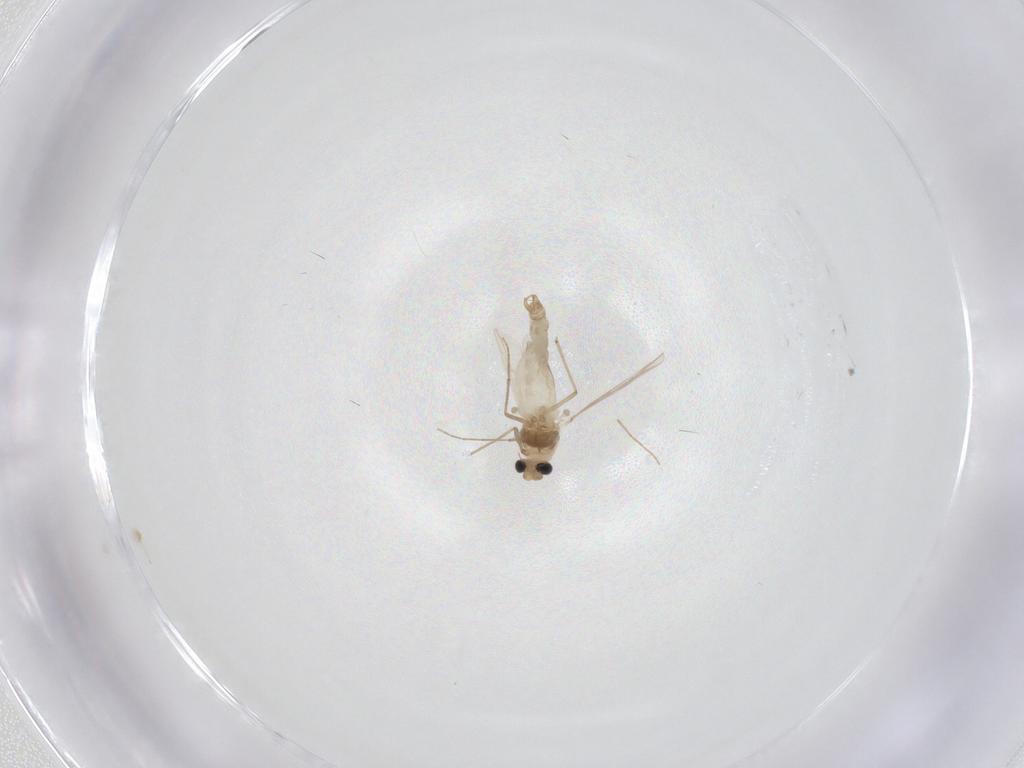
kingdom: Animalia
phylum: Arthropoda
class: Insecta
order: Diptera
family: Chironomidae
